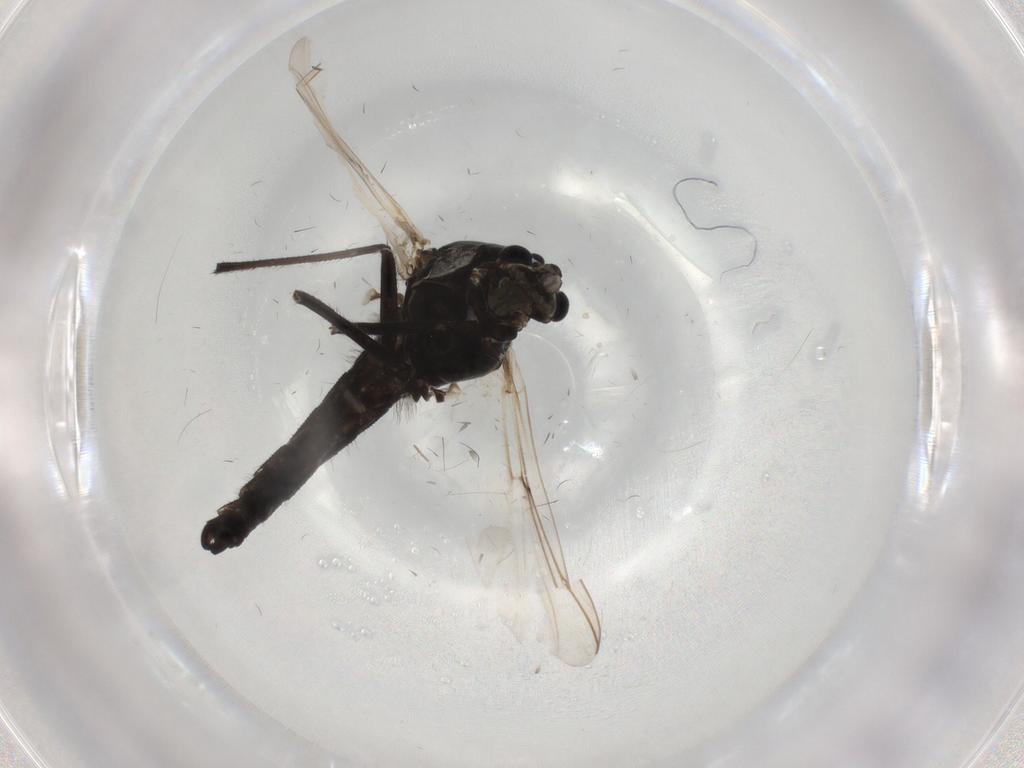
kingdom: Animalia
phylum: Arthropoda
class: Insecta
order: Diptera
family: Chironomidae
